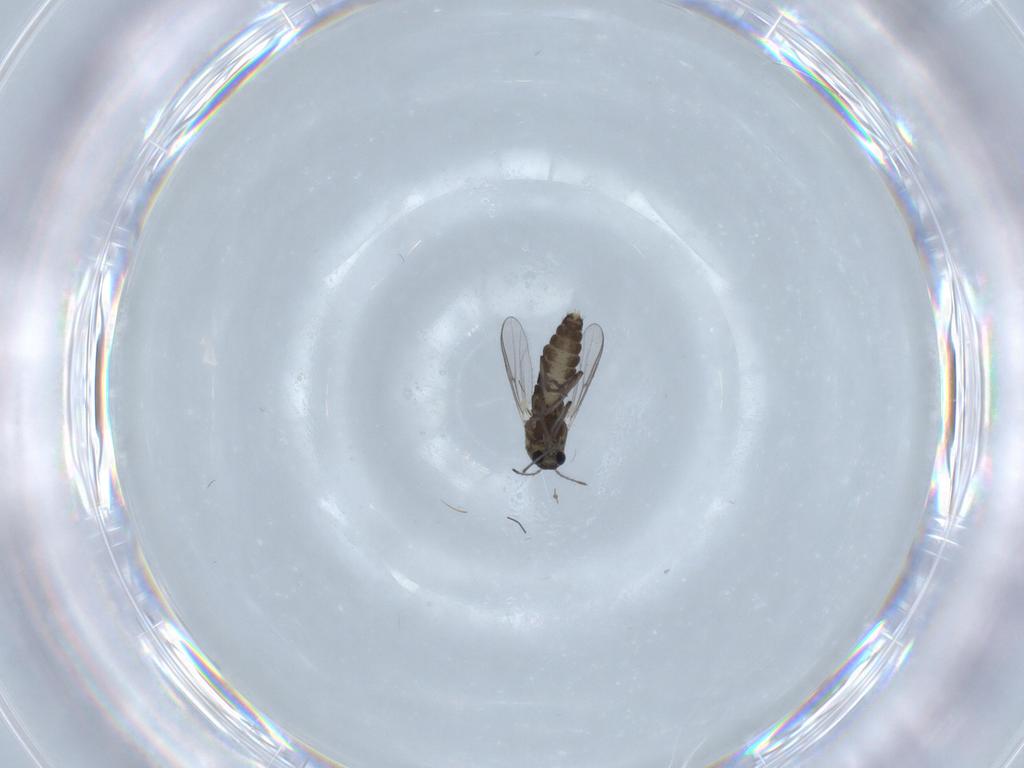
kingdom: Animalia
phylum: Arthropoda
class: Insecta
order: Diptera
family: Chironomidae
